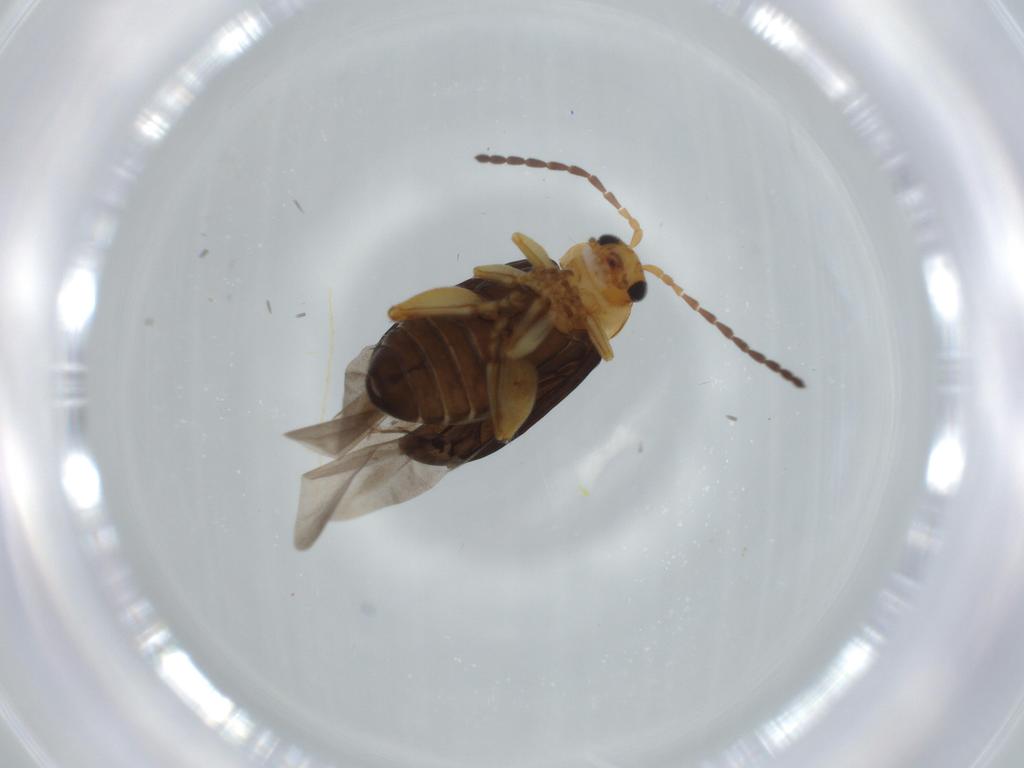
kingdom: Animalia
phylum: Arthropoda
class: Insecta
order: Coleoptera
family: Chrysomelidae
